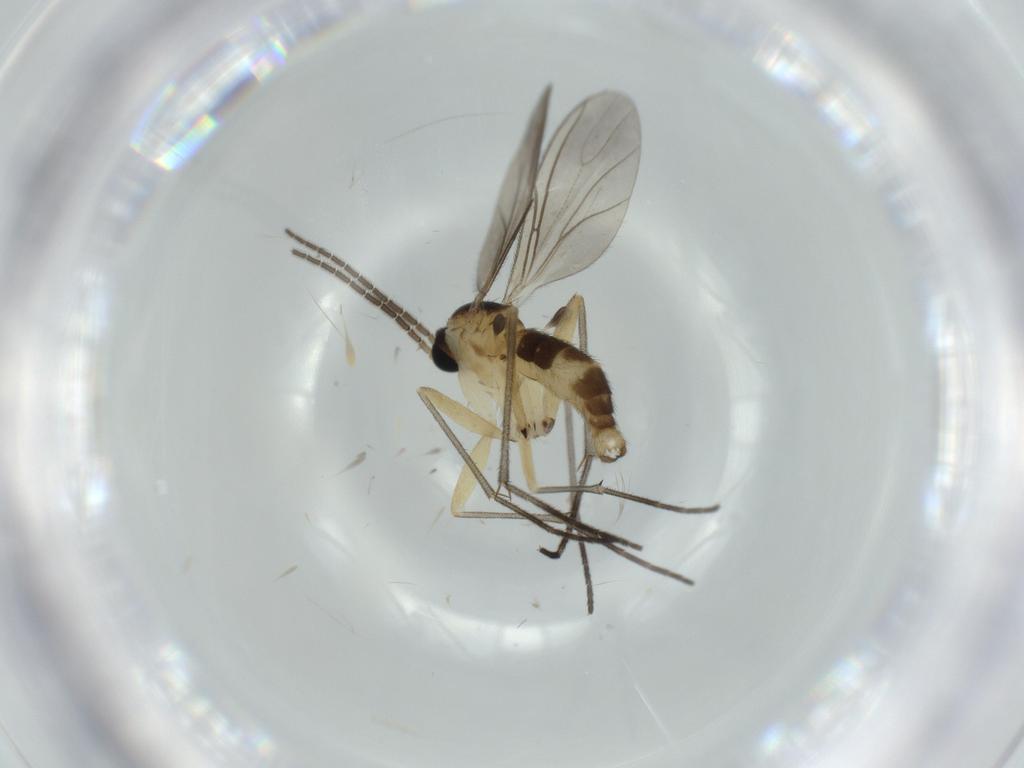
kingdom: Animalia
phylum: Arthropoda
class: Insecta
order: Diptera
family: Sciaridae
